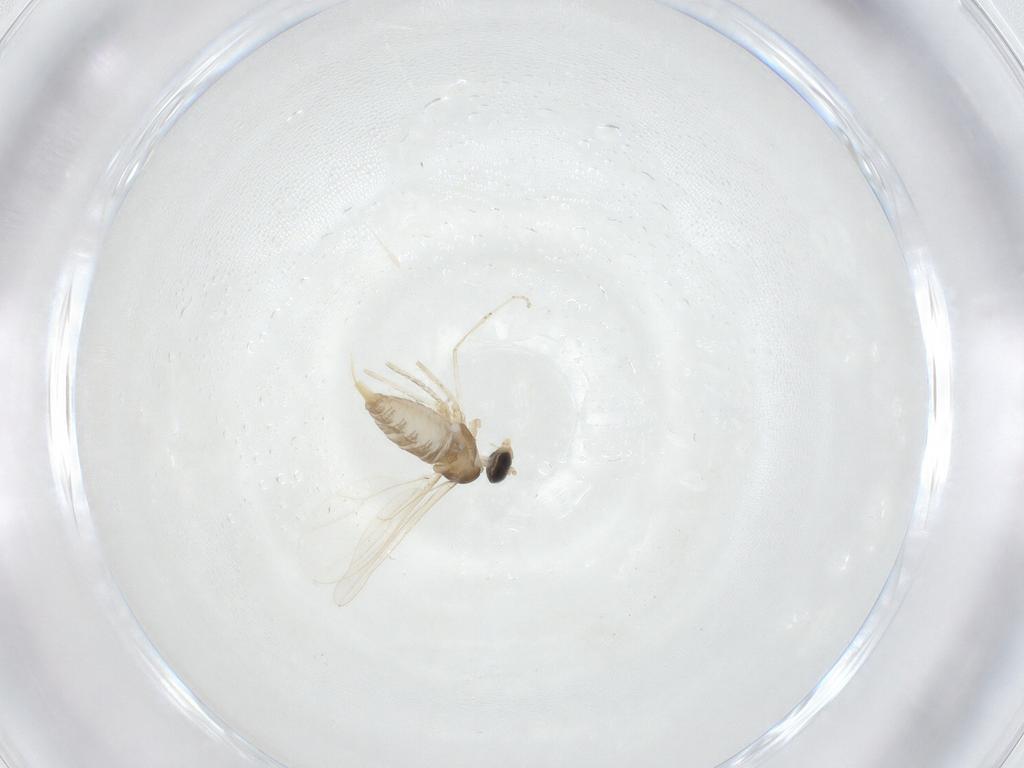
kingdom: Animalia
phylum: Arthropoda
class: Insecta
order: Diptera
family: Cecidomyiidae
